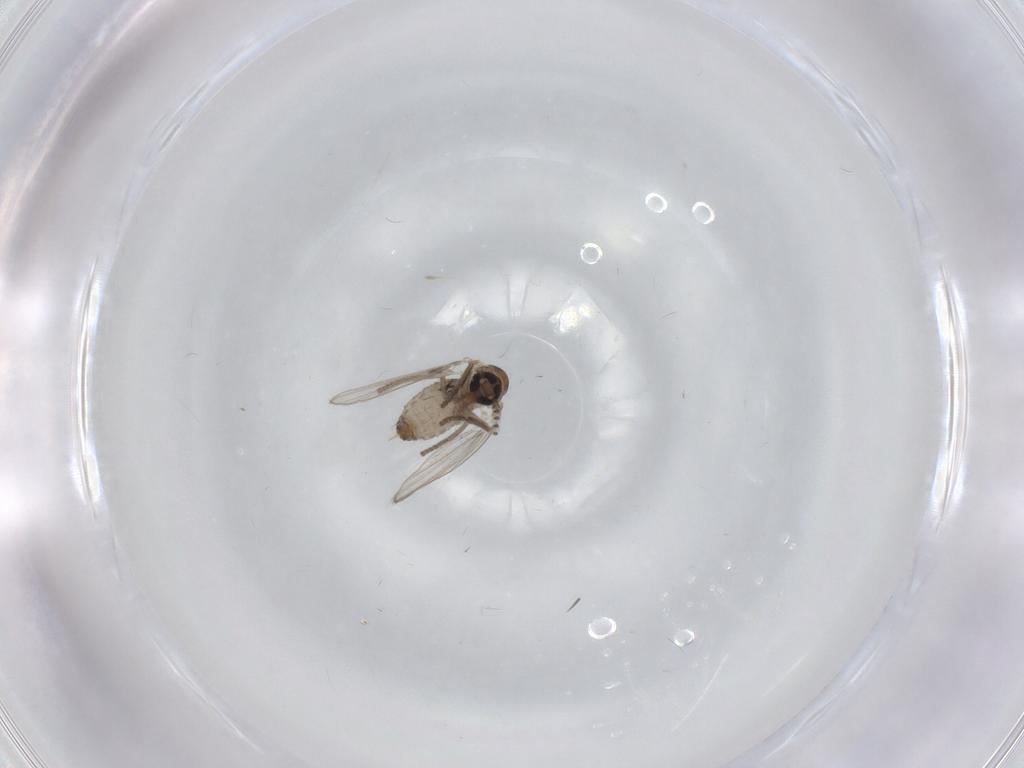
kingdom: Animalia
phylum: Arthropoda
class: Insecta
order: Diptera
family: Psychodidae
